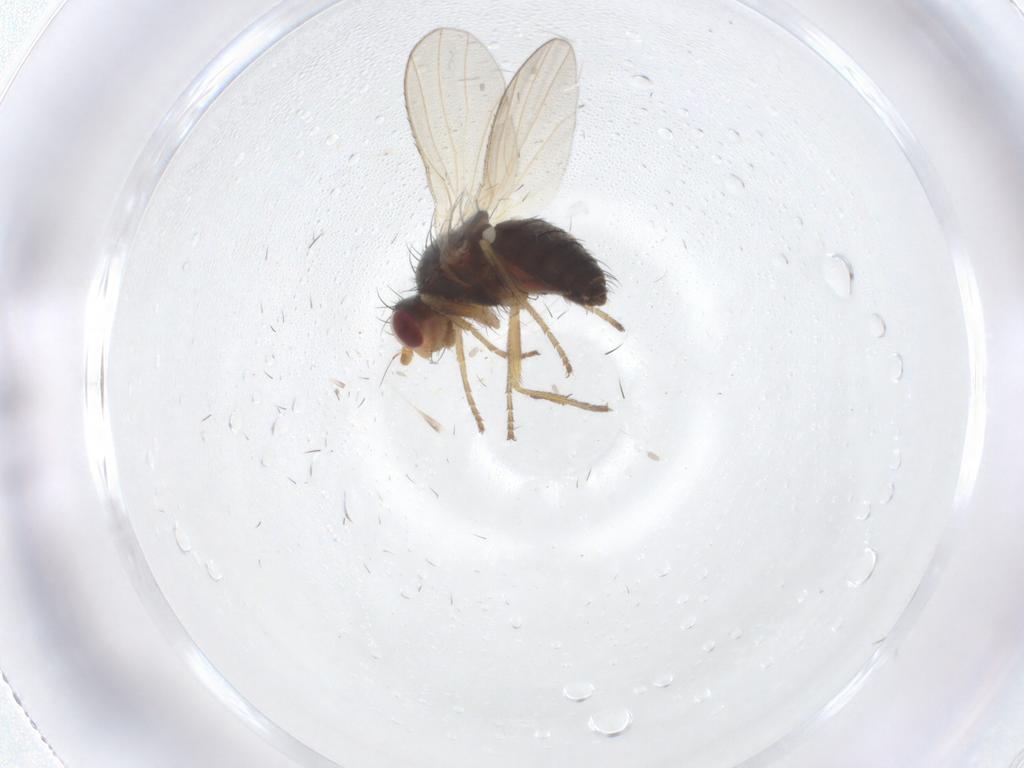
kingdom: Animalia
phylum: Arthropoda
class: Insecta
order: Diptera
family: Heleomyzidae
